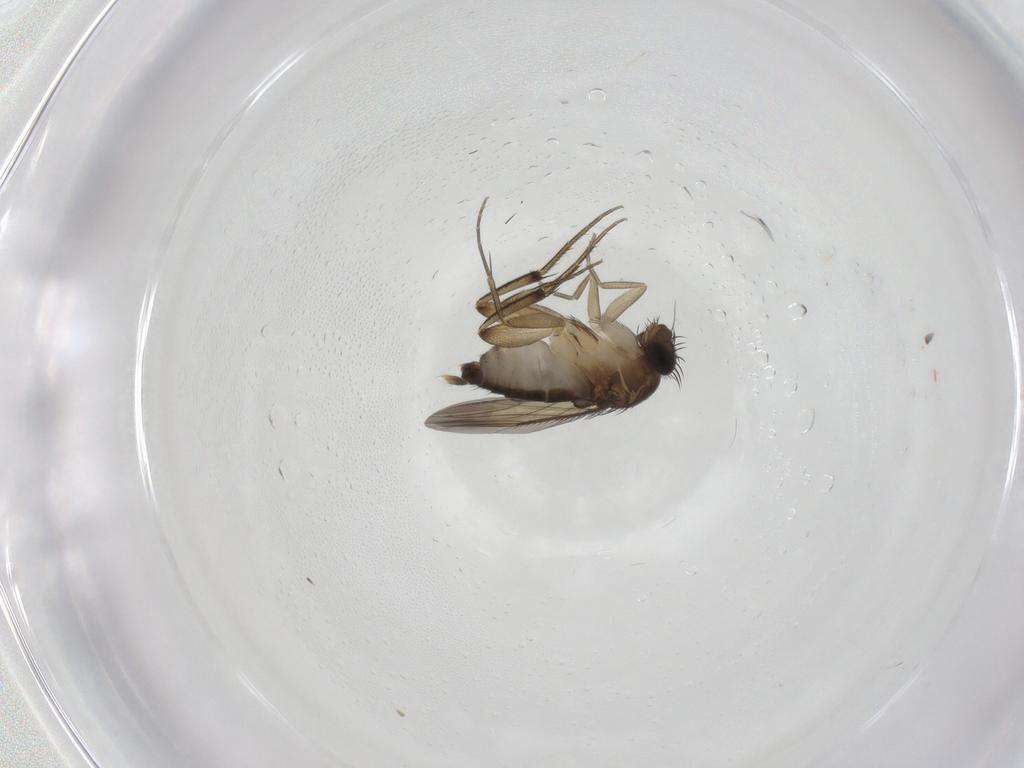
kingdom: Animalia
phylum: Arthropoda
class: Insecta
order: Diptera
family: Phoridae
